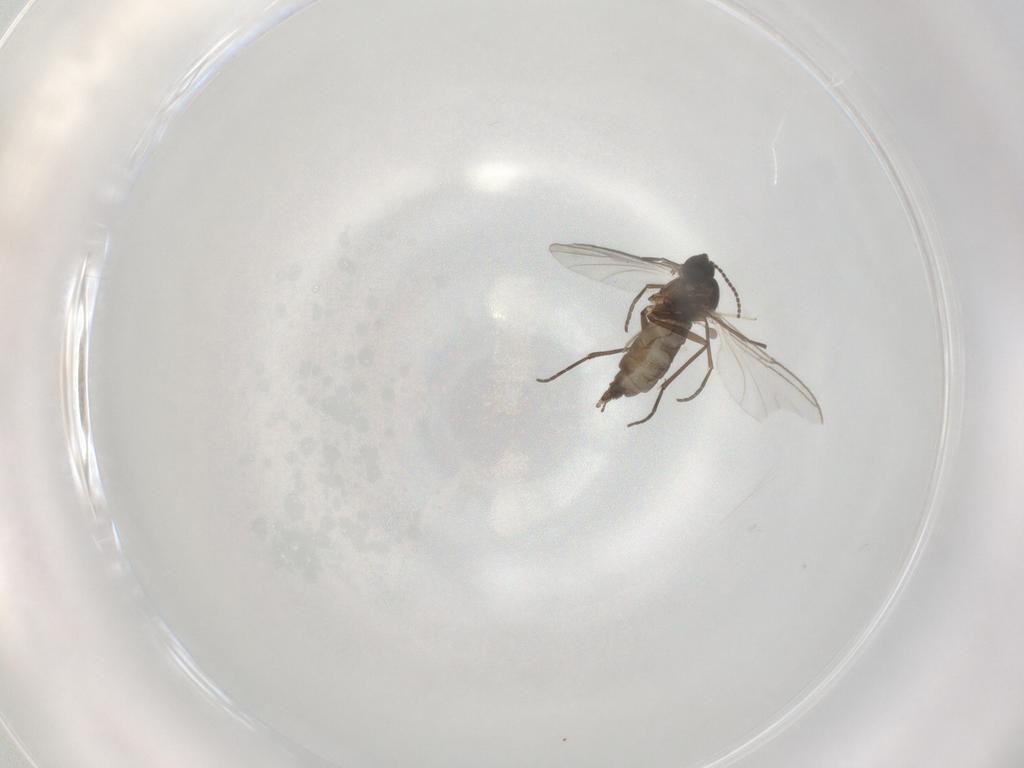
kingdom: Animalia
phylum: Arthropoda
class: Insecta
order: Diptera
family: Sciaridae
